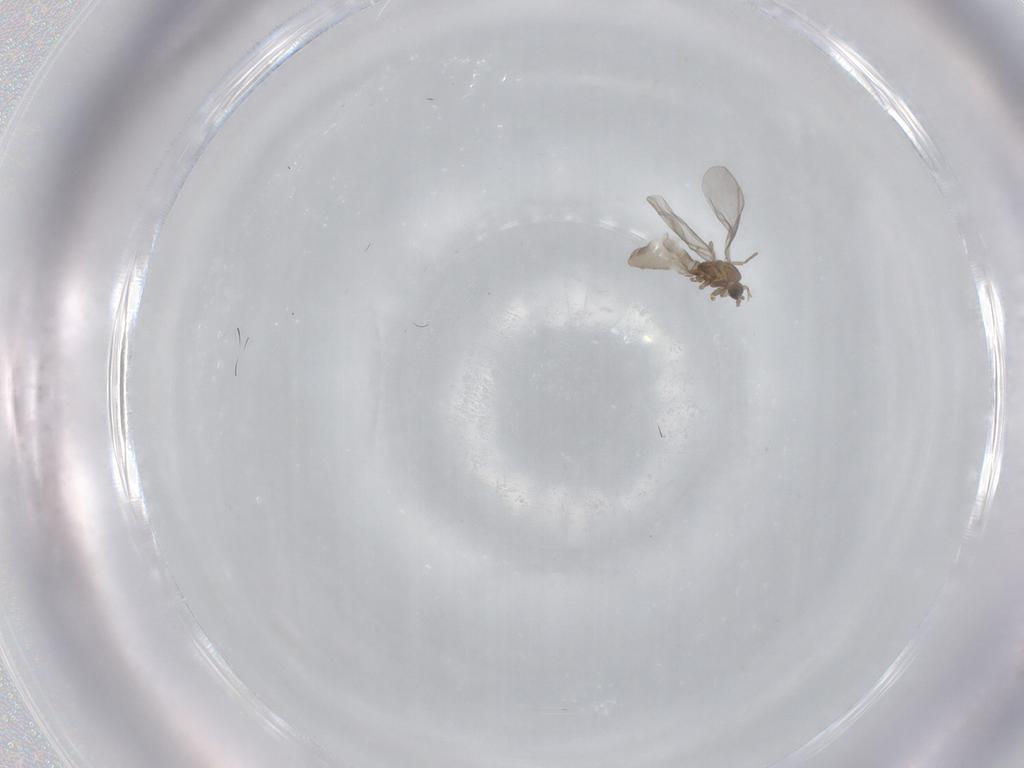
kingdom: Animalia
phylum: Arthropoda
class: Insecta
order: Diptera
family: Sciaridae
